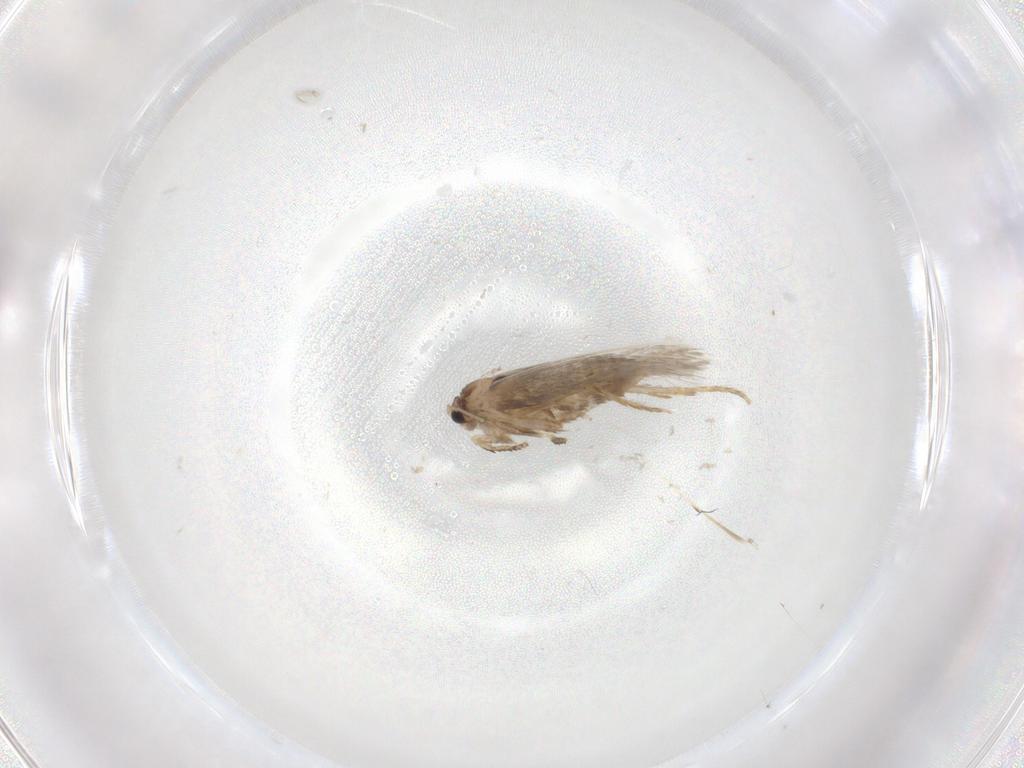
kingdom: Animalia
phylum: Arthropoda
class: Insecta
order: Lepidoptera
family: Nepticulidae
